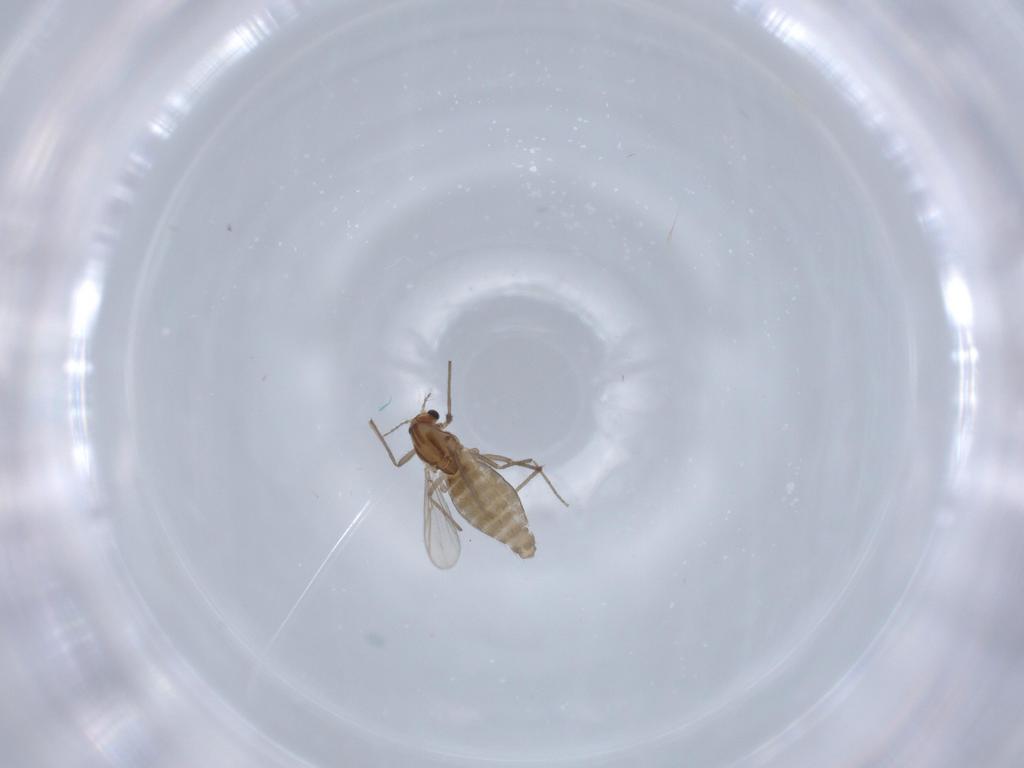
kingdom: Animalia
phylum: Arthropoda
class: Insecta
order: Diptera
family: Chironomidae
